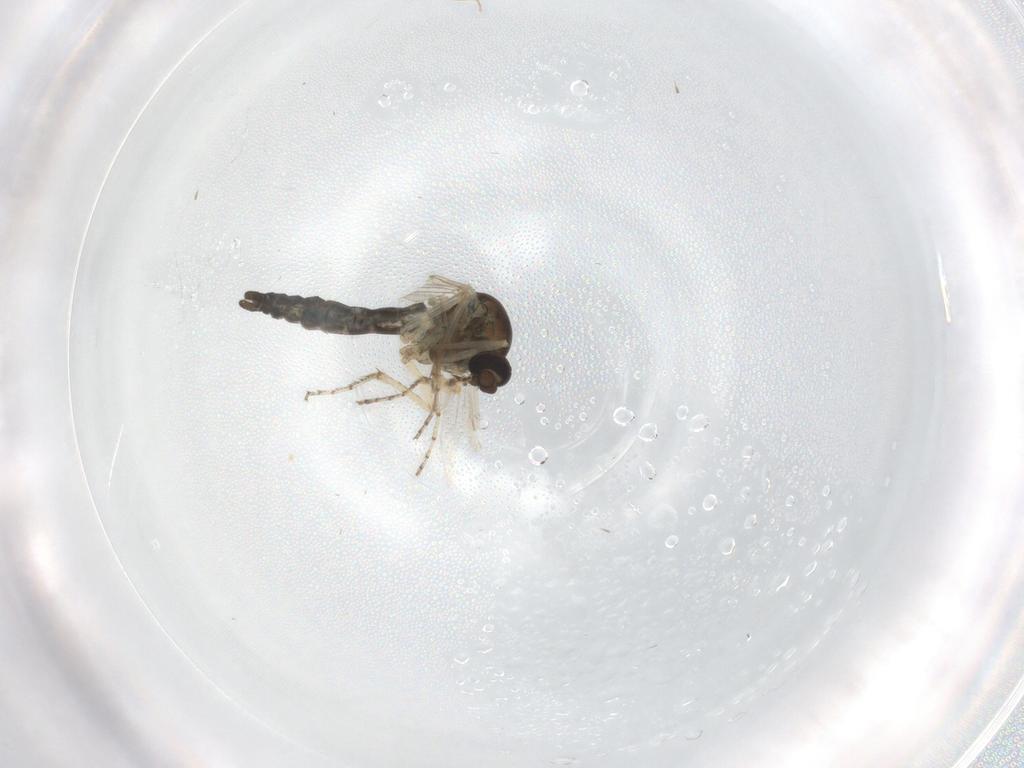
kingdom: Animalia
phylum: Arthropoda
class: Insecta
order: Diptera
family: Ceratopogonidae
